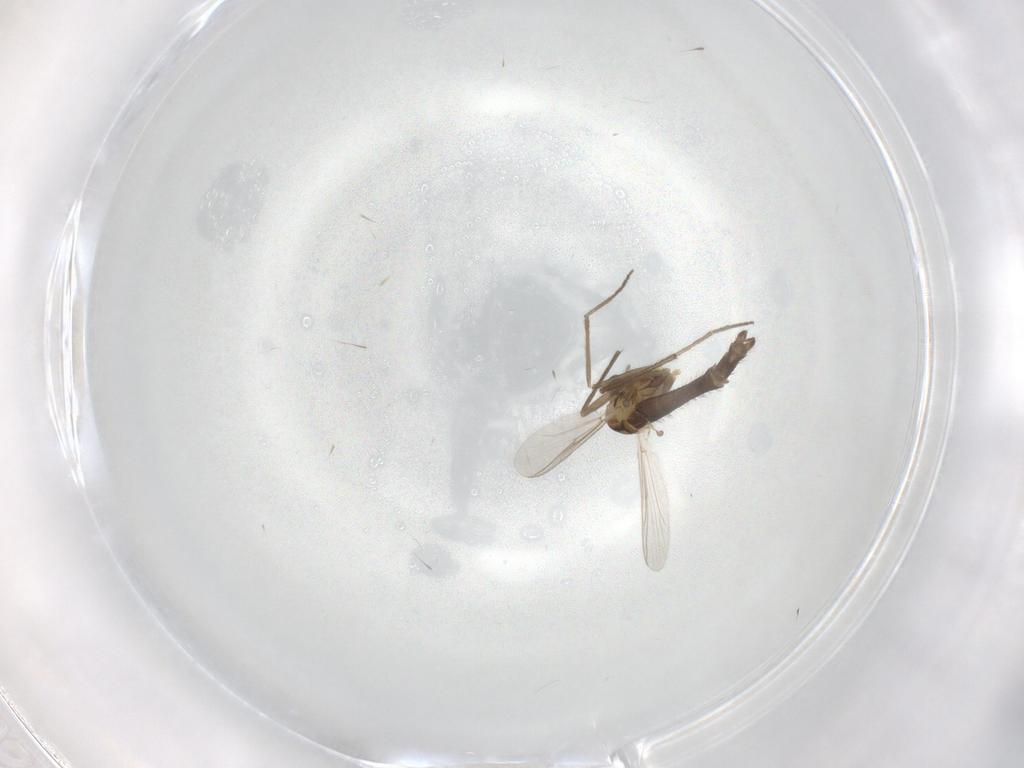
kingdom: Animalia
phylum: Arthropoda
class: Insecta
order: Diptera
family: Chironomidae
